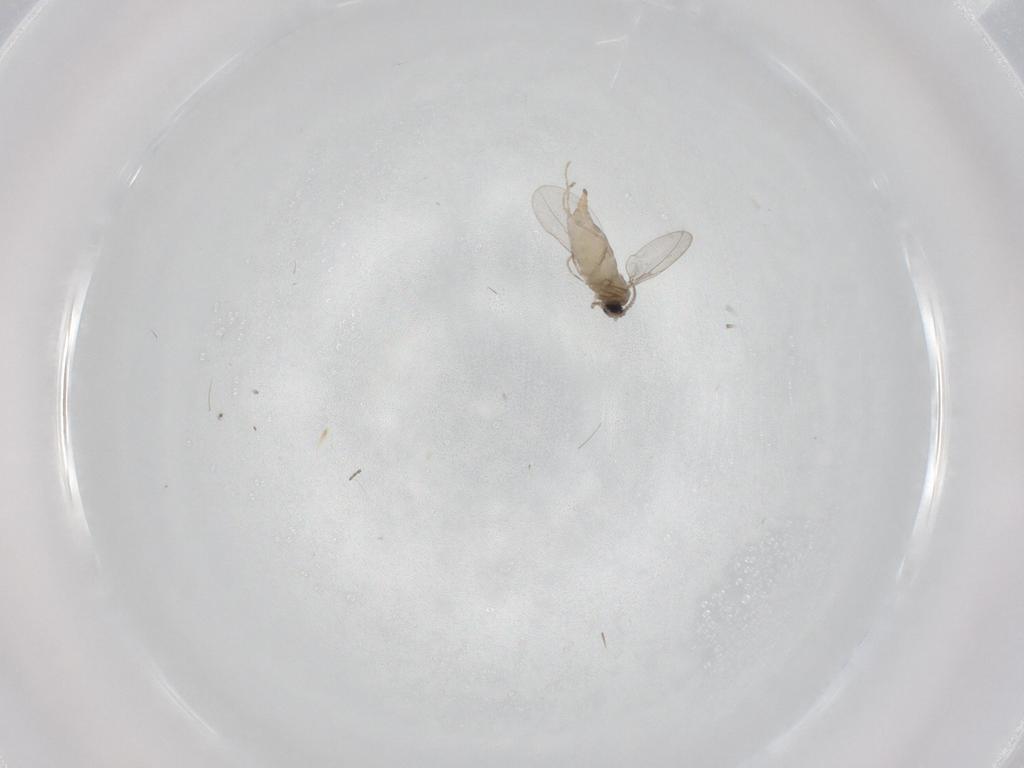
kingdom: Animalia
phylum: Arthropoda
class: Insecta
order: Diptera
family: Cecidomyiidae
